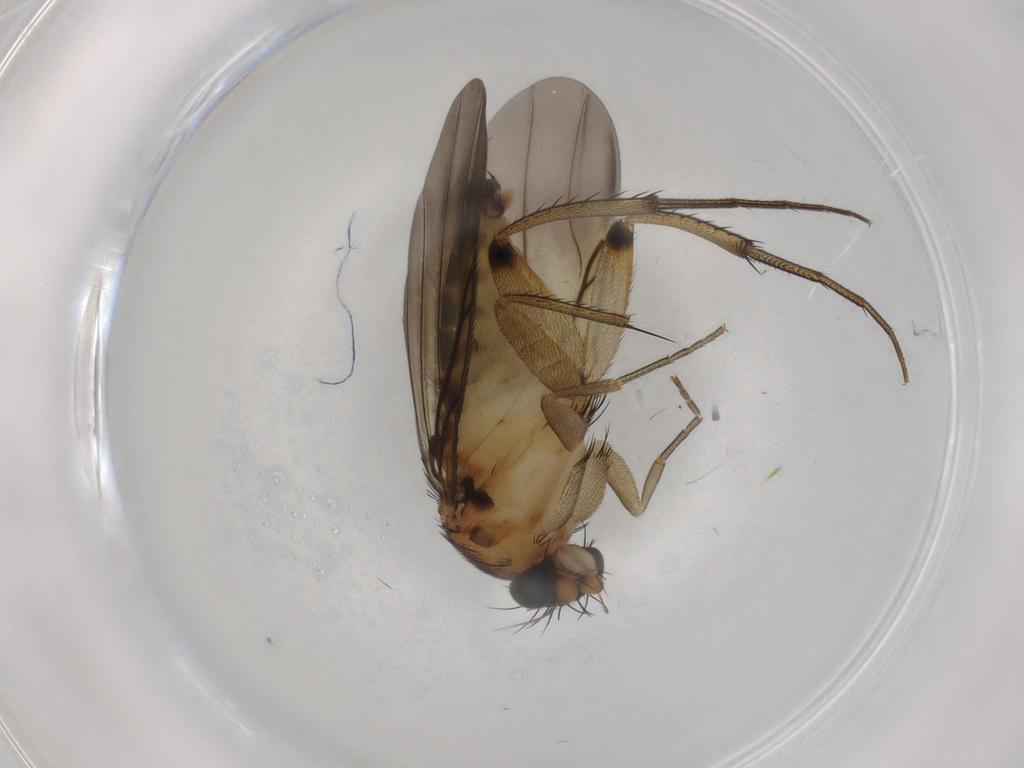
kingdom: Animalia
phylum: Arthropoda
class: Insecta
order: Diptera
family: Phoridae
